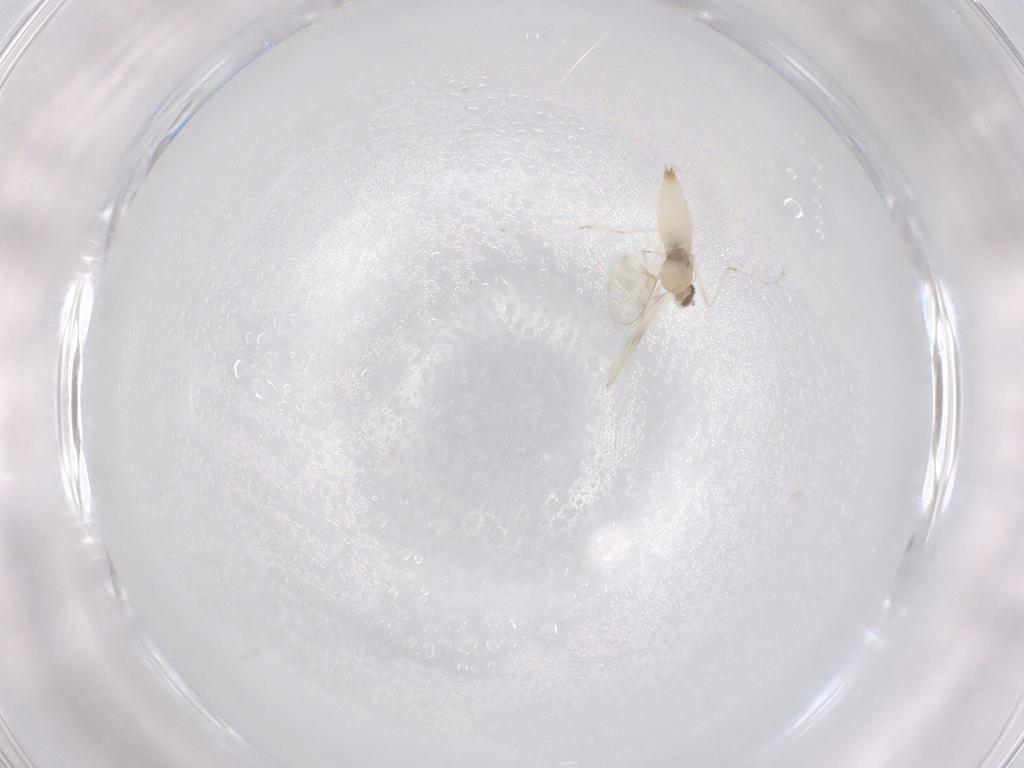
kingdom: Animalia
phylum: Arthropoda
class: Insecta
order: Diptera
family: Cecidomyiidae
